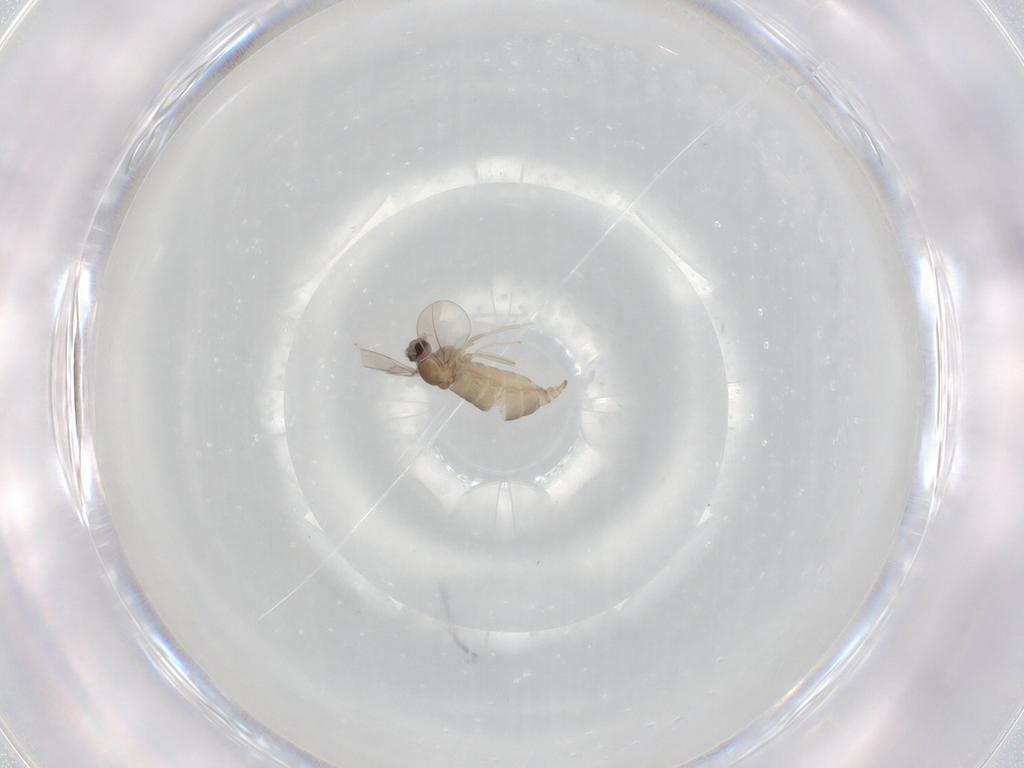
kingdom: Animalia
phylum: Arthropoda
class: Insecta
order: Diptera
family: Cecidomyiidae
